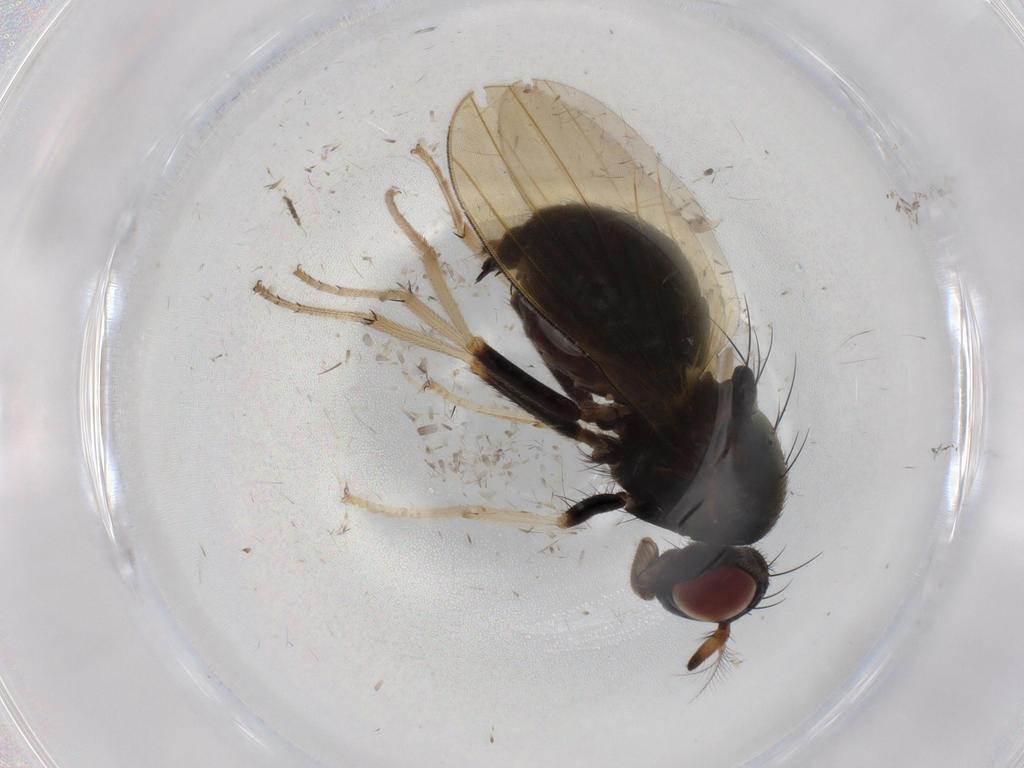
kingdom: Animalia
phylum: Arthropoda
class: Insecta
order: Diptera
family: Cecidomyiidae
